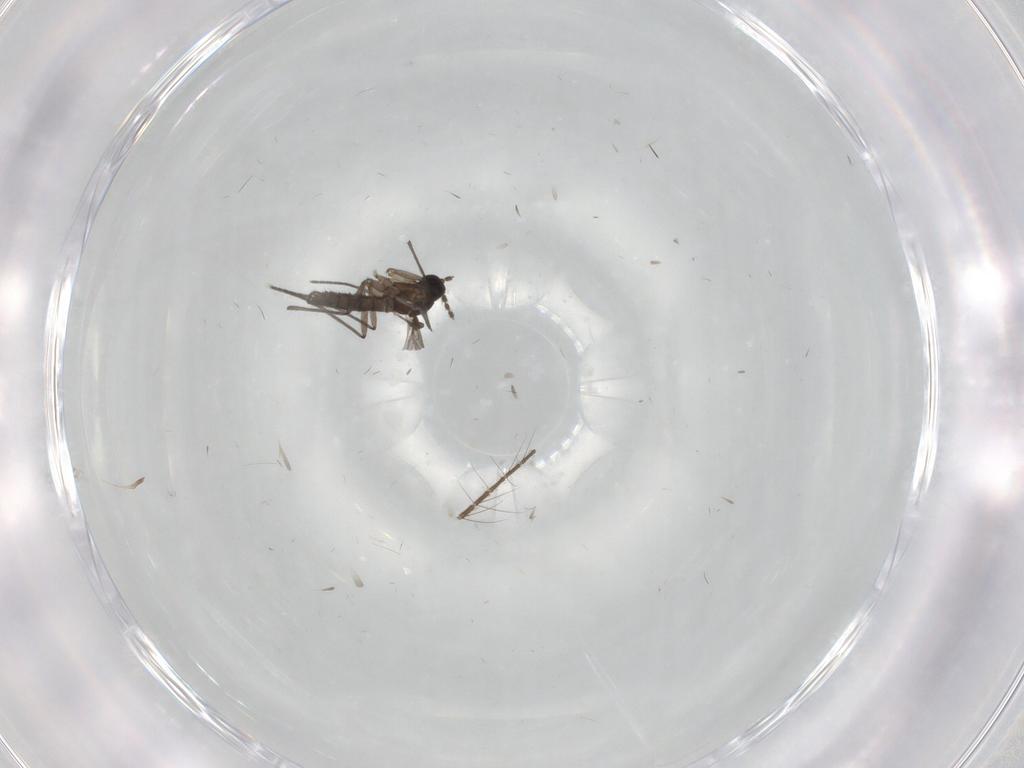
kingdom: Animalia
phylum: Arthropoda
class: Insecta
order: Diptera
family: Sciaridae
